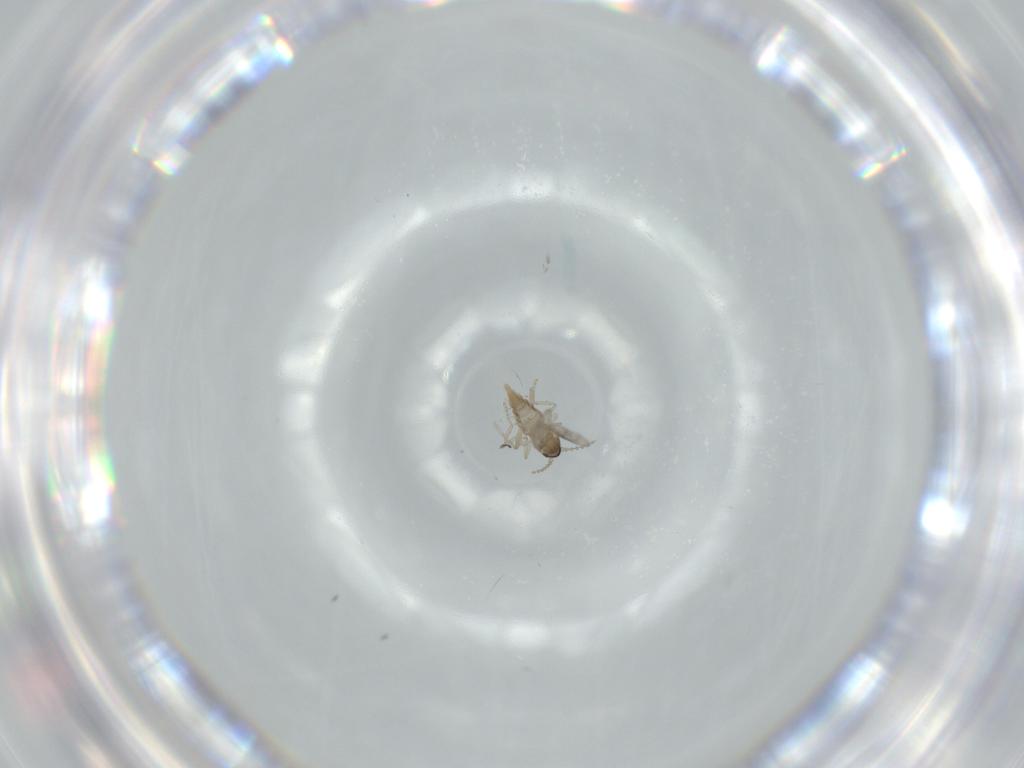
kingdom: Animalia
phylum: Arthropoda
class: Insecta
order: Diptera
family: Cecidomyiidae
